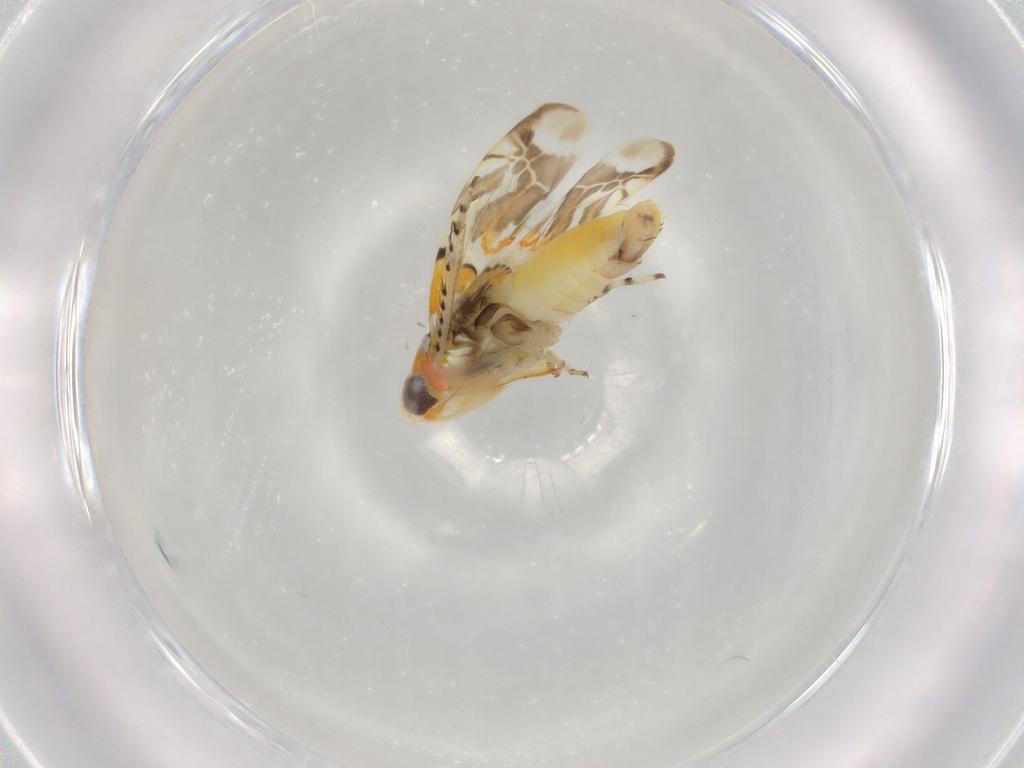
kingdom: Animalia
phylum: Arthropoda
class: Insecta
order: Hemiptera
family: Cicadellidae
